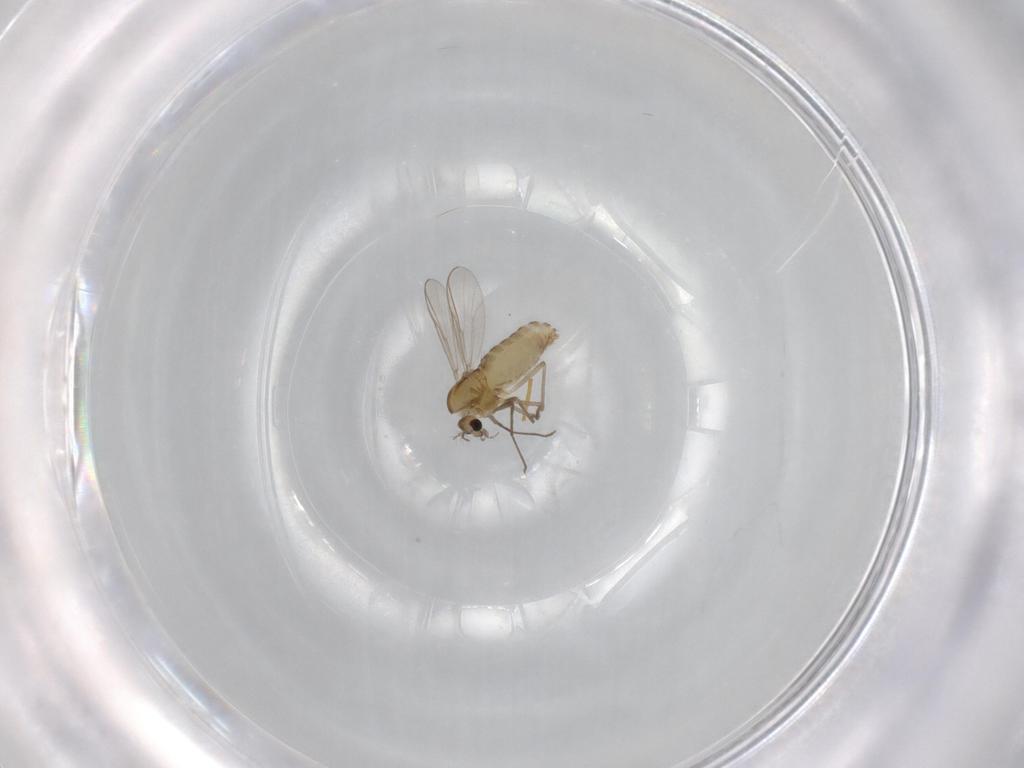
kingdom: Animalia
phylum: Arthropoda
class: Insecta
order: Diptera
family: Chironomidae
